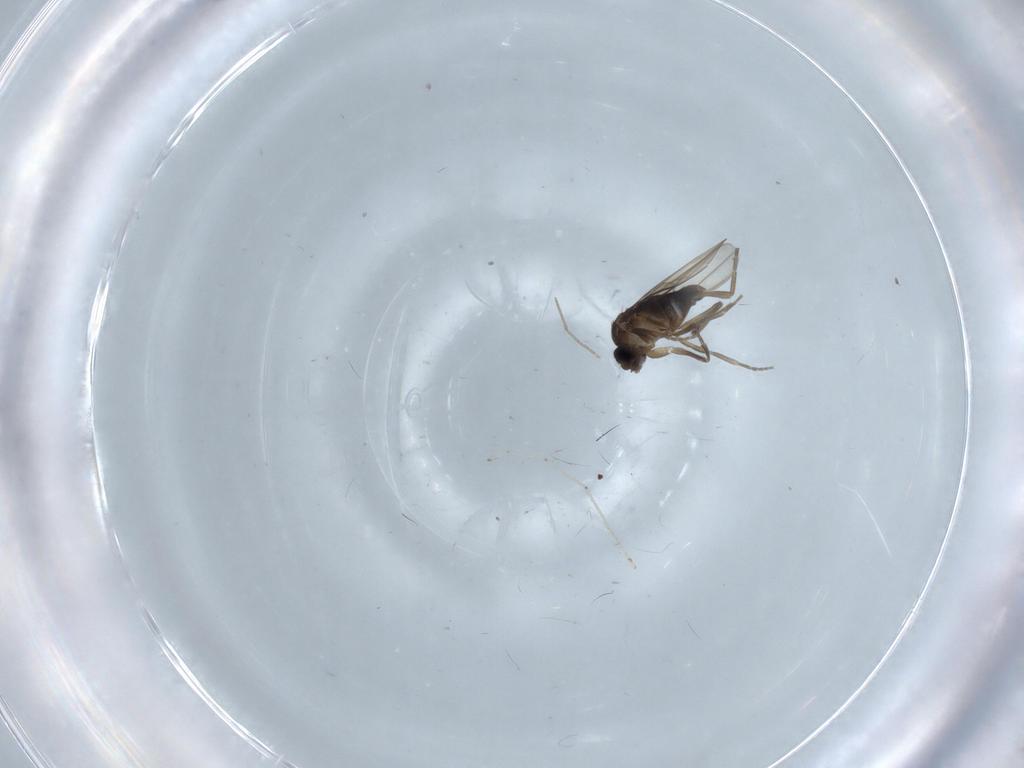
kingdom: Animalia
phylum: Arthropoda
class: Insecta
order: Diptera
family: Phoridae
